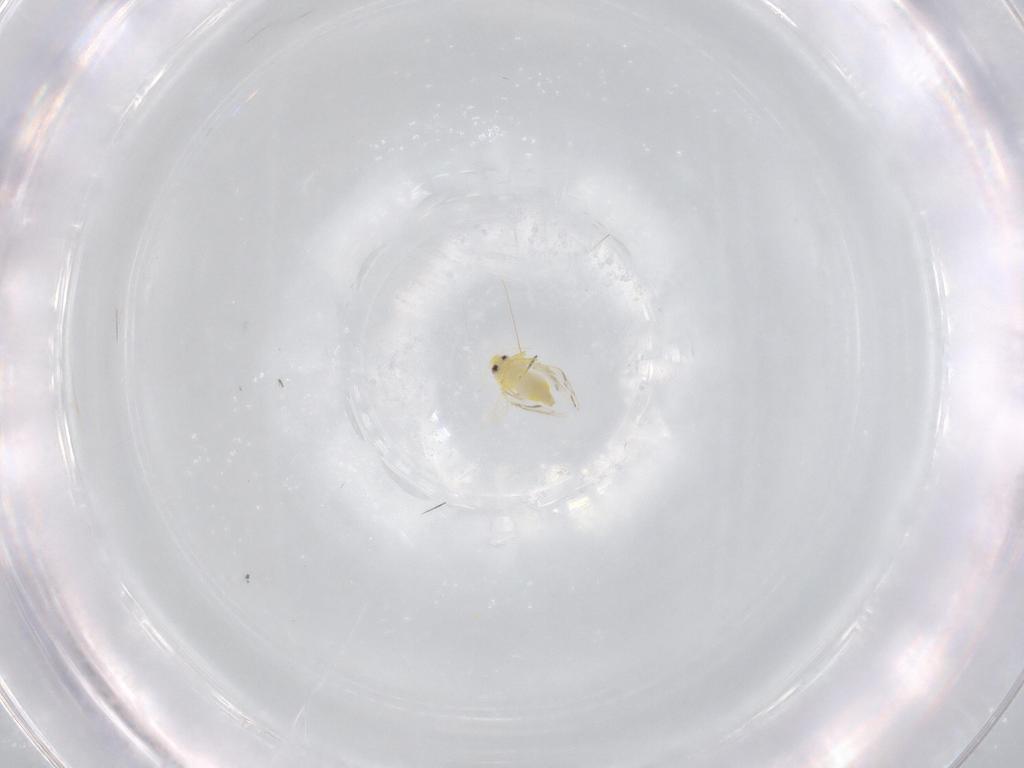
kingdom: Animalia
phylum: Arthropoda
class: Insecta
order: Hemiptera
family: Aleyrodidae
